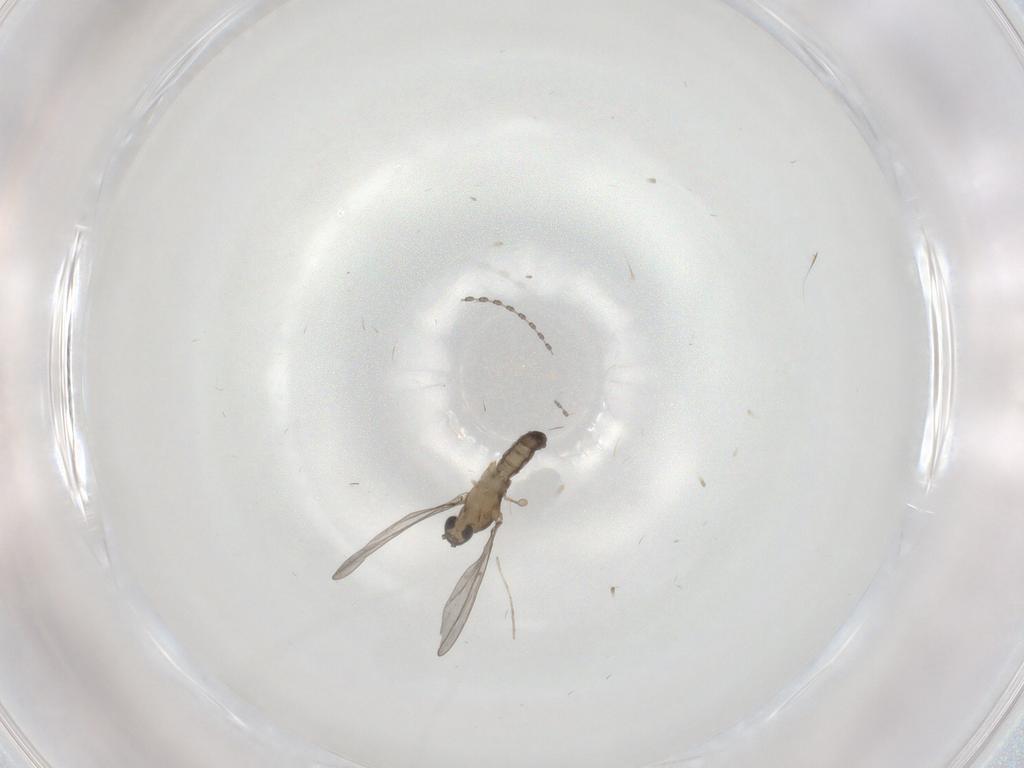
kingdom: Animalia
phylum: Arthropoda
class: Insecta
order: Diptera
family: Cecidomyiidae
